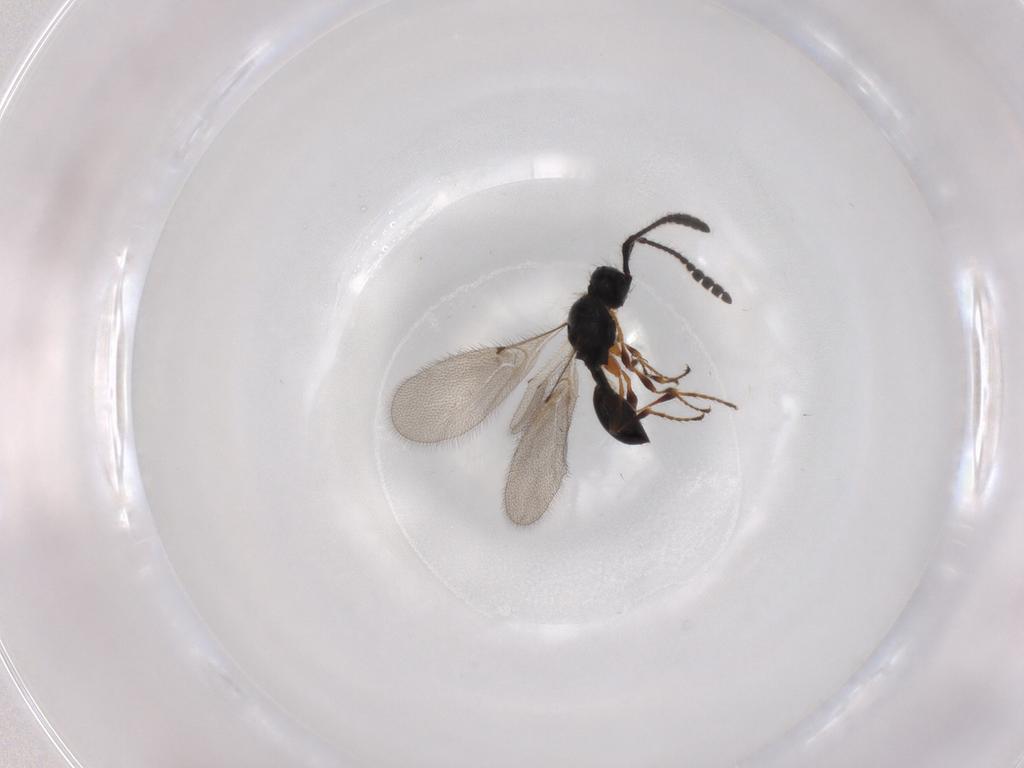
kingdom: Animalia
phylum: Arthropoda
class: Insecta
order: Hymenoptera
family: Diapriidae
